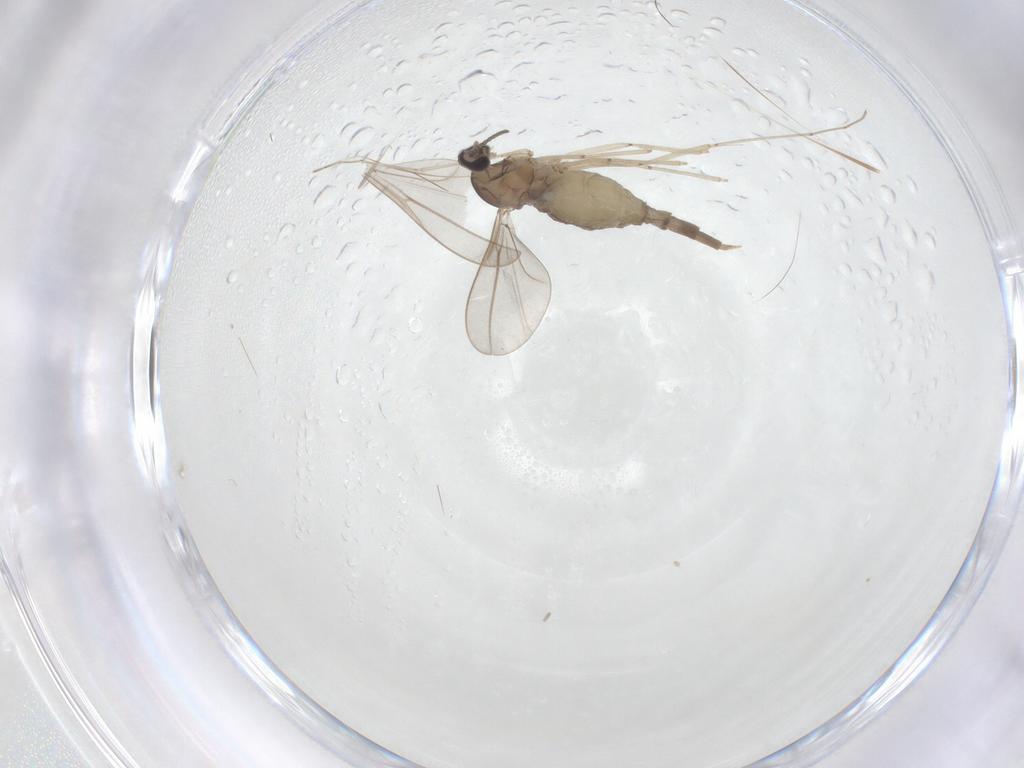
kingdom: Animalia
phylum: Arthropoda
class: Insecta
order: Diptera
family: Cecidomyiidae
